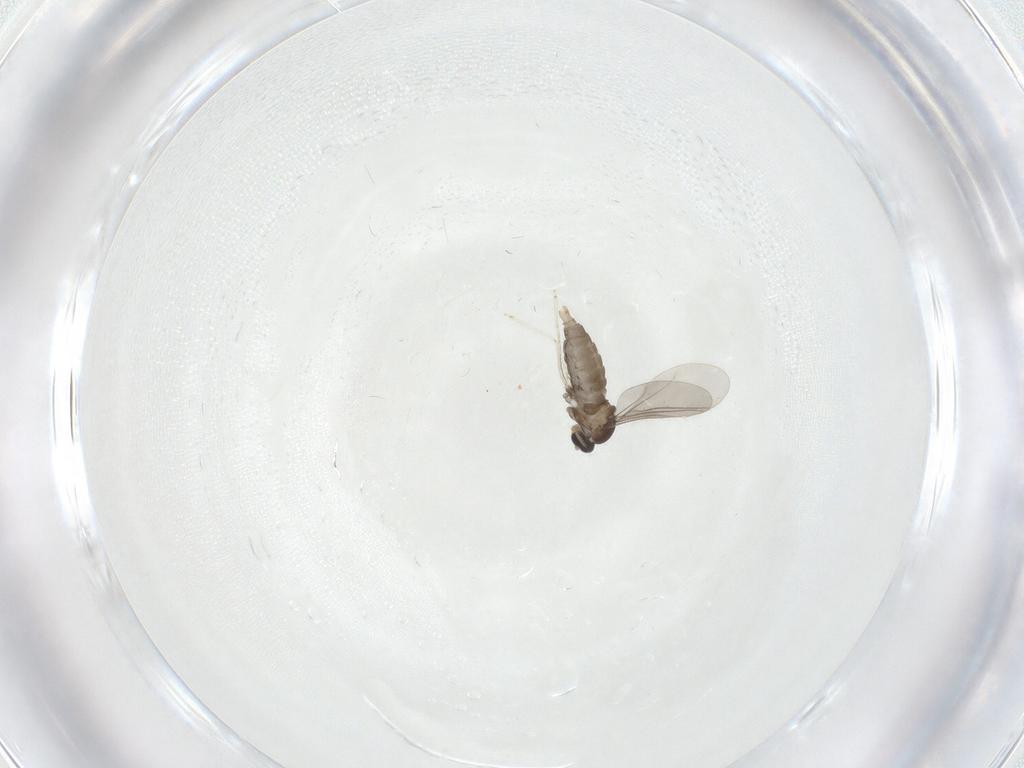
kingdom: Animalia
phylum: Arthropoda
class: Insecta
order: Diptera
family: Cecidomyiidae
